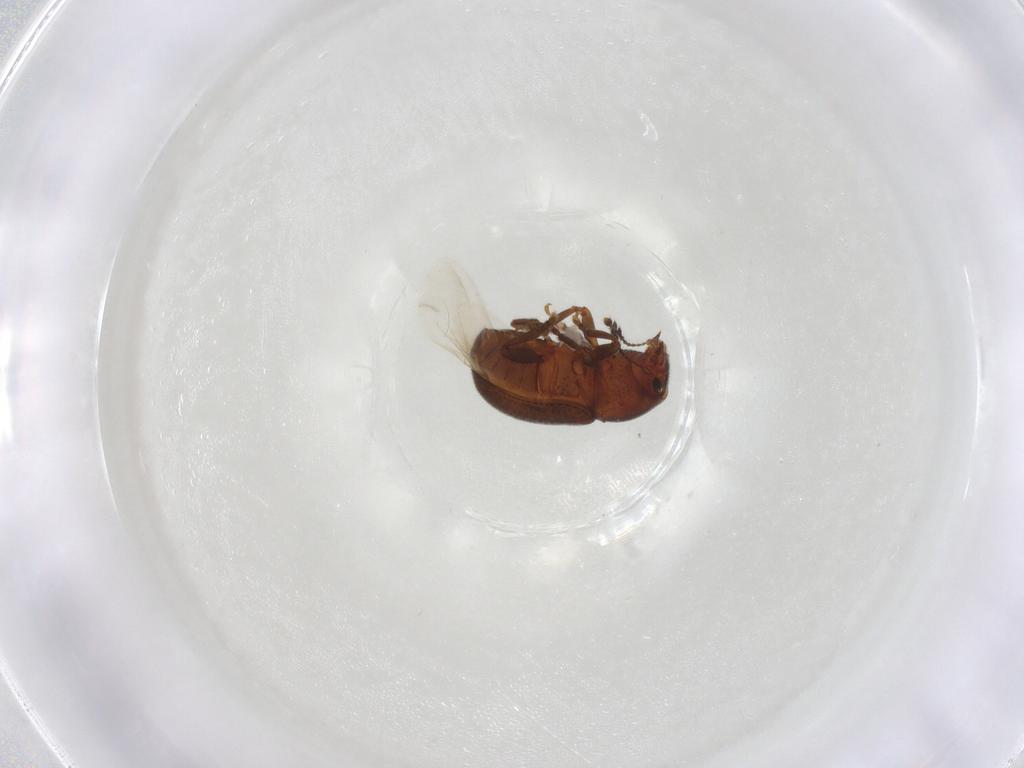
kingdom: Animalia
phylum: Arthropoda
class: Insecta
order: Coleoptera
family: Anthribidae
